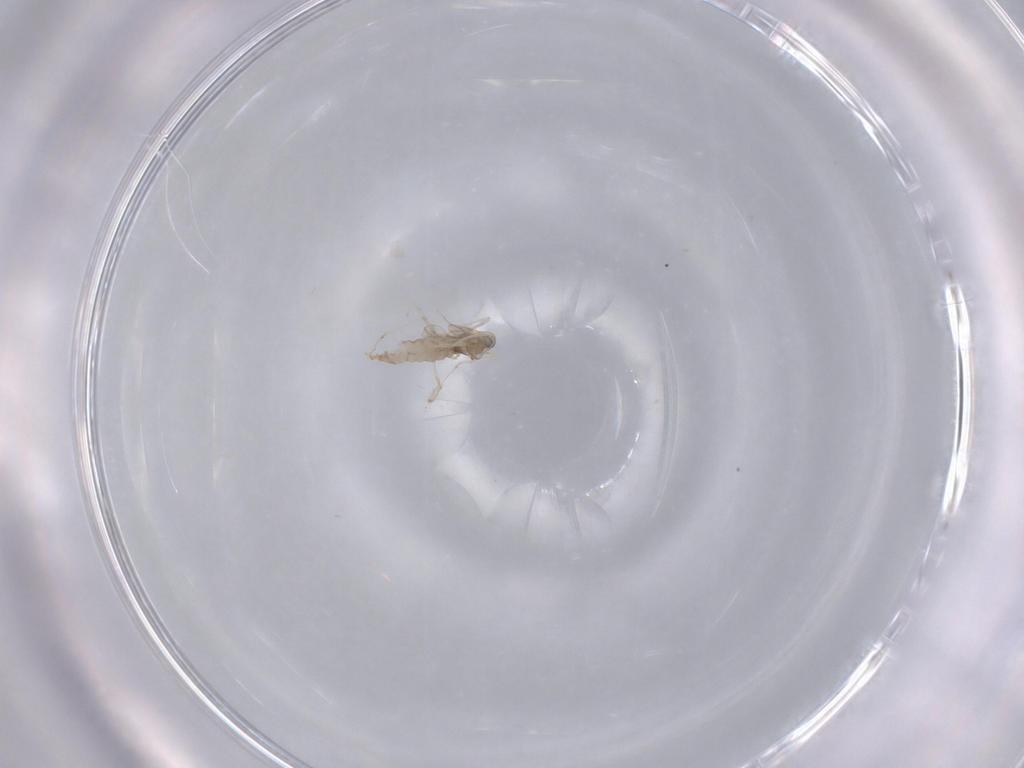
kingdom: Animalia
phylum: Arthropoda
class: Insecta
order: Diptera
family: Cecidomyiidae
